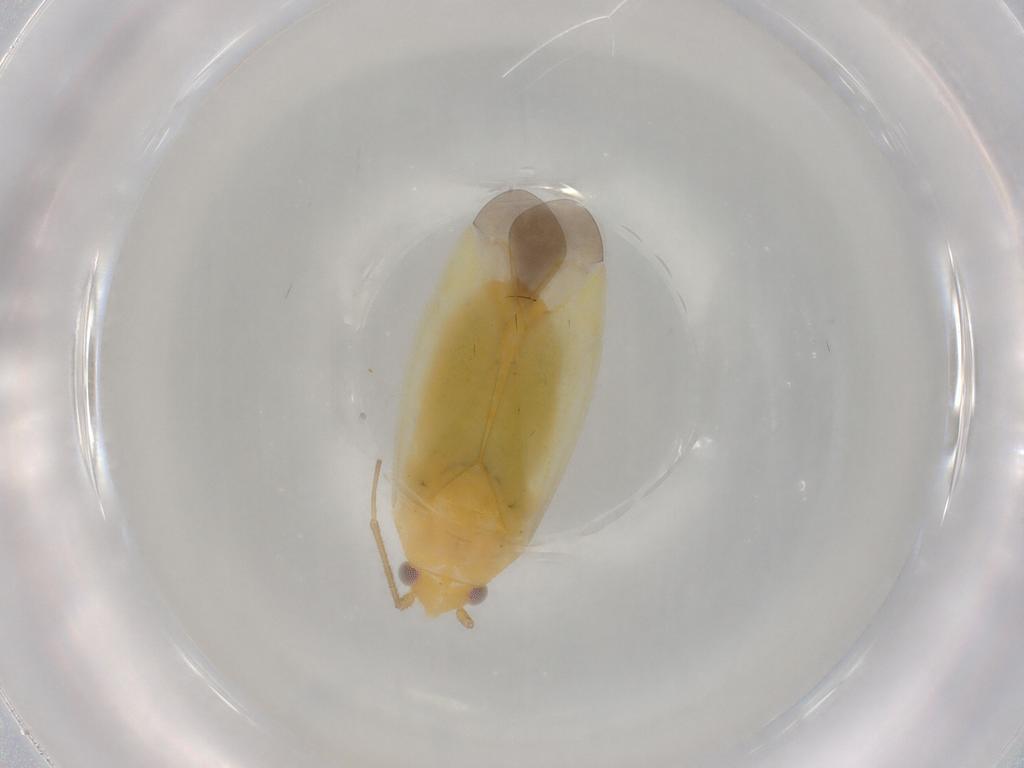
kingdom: Animalia
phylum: Arthropoda
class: Insecta
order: Hemiptera
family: Miridae
